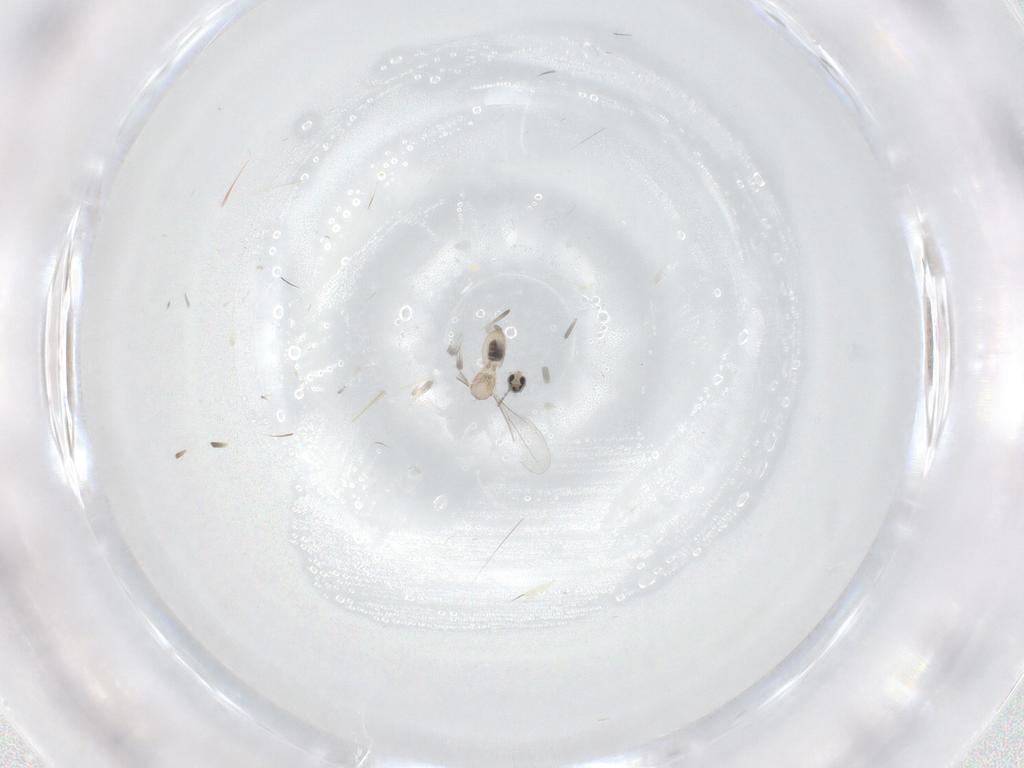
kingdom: Animalia
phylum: Arthropoda
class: Insecta
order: Diptera
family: Cecidomyiidae
